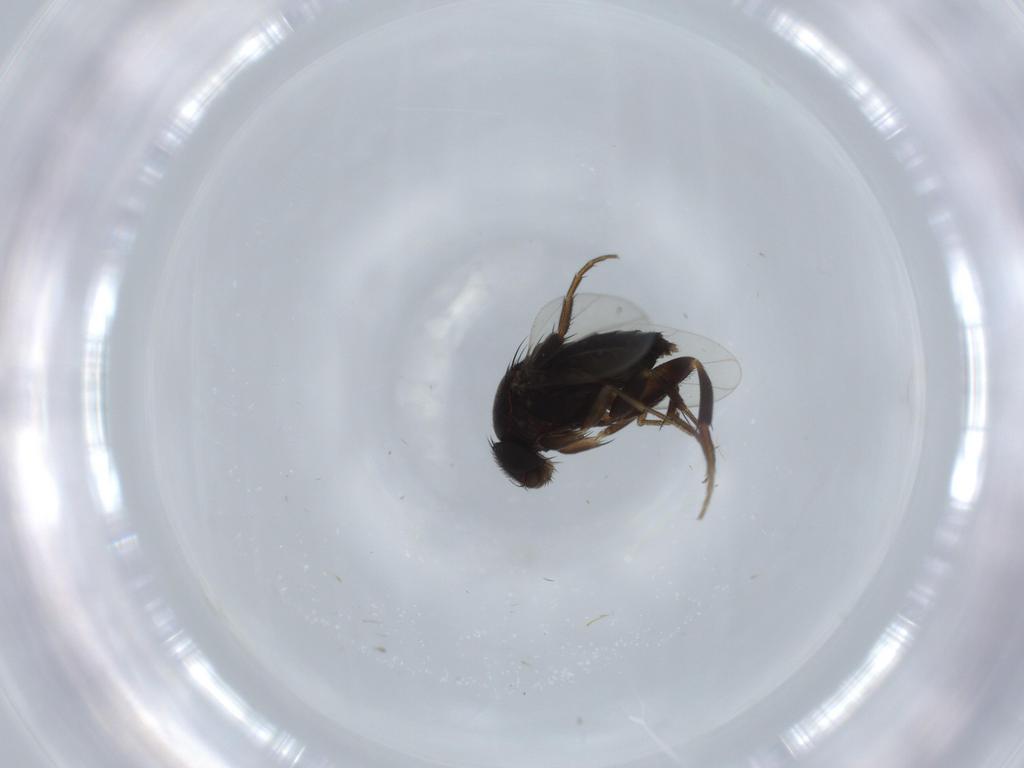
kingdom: Animalia
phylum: Arthropoda
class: Insecta
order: Diptera
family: Phoridae
